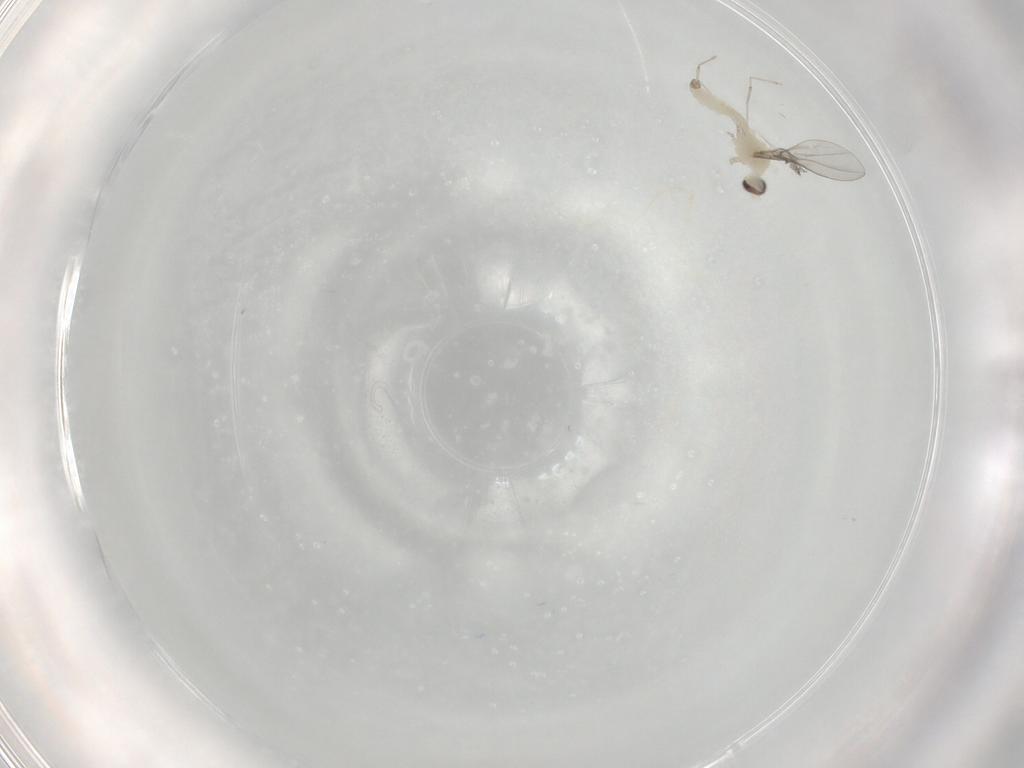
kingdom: Animalia
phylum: Arthropoda
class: Insecta
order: Diptera
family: Cecidomyiidae
